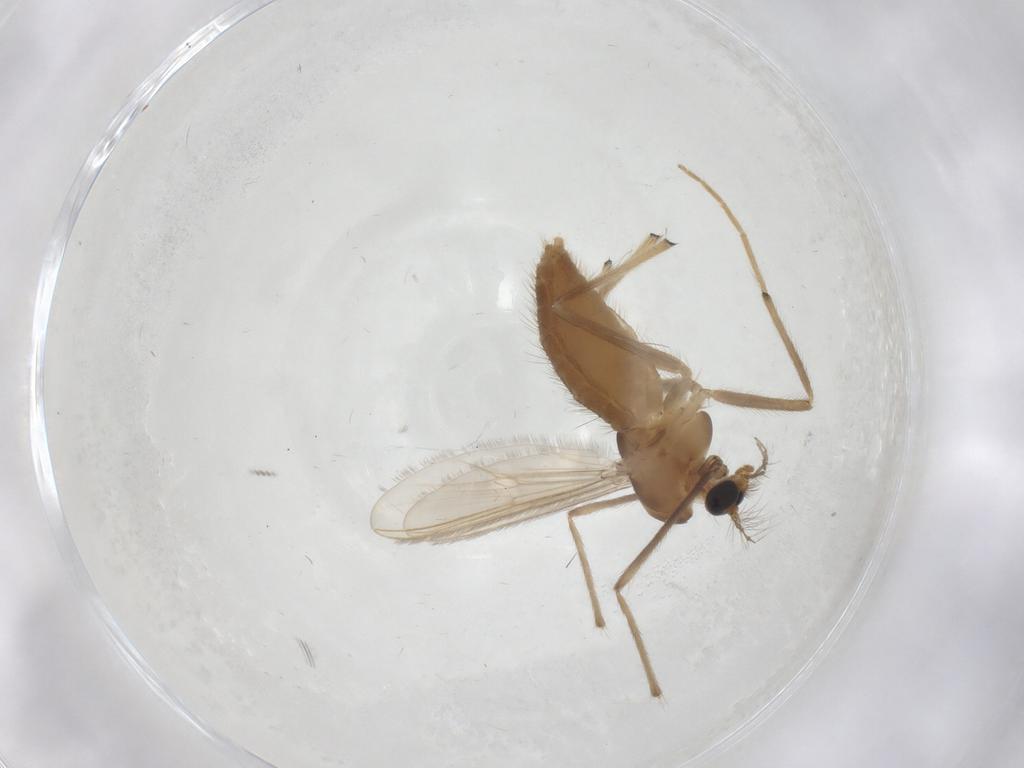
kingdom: Animalia
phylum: Arthropoda
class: Insecta
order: Diptera
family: Chironomidae
